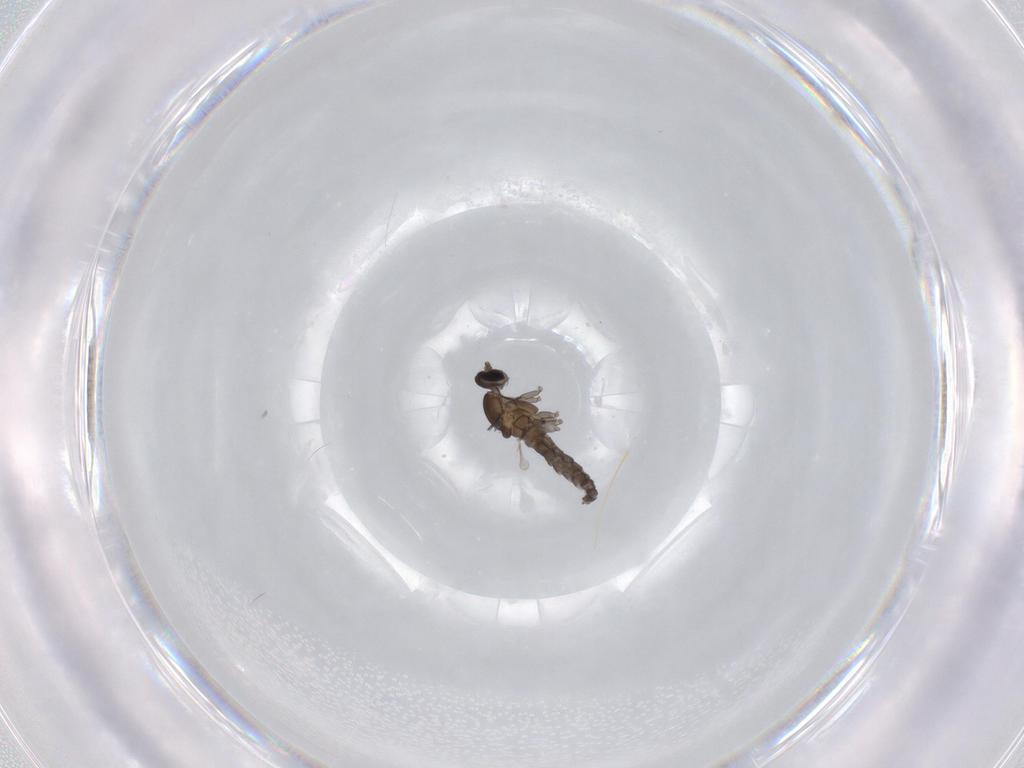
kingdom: Animalia
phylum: Arthropoda
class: Insecta
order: Diptera
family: Cecidomyiidae
